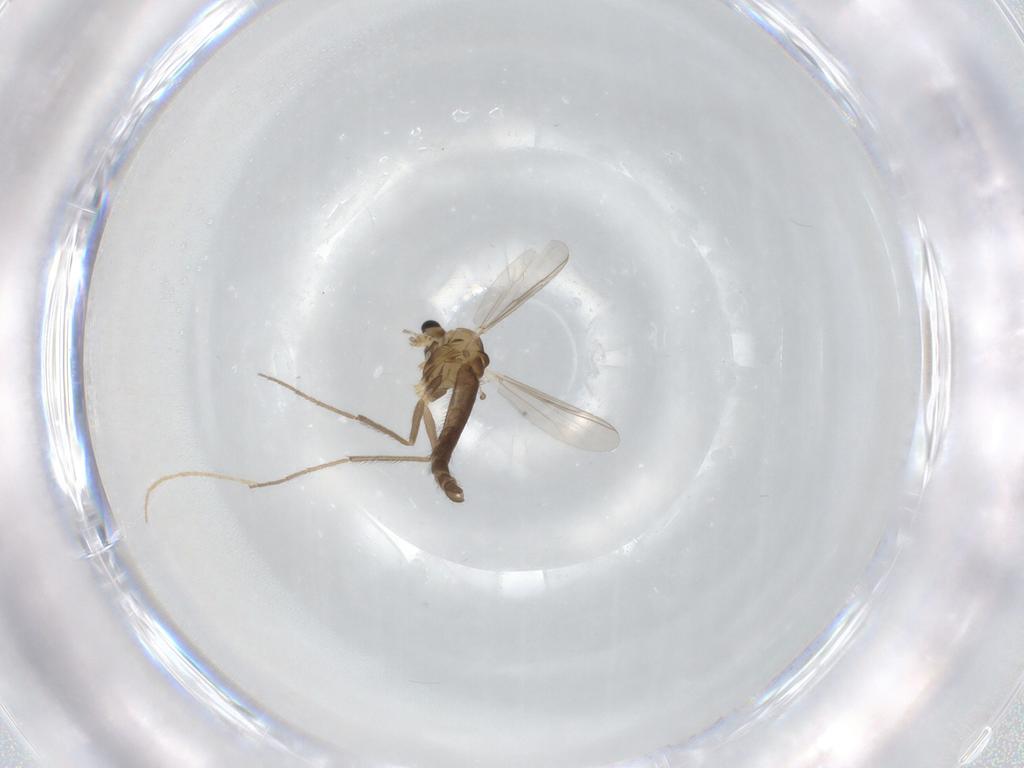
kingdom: Animalia
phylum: Arthropoda
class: Insecta
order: Diptera
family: Chironomidae
